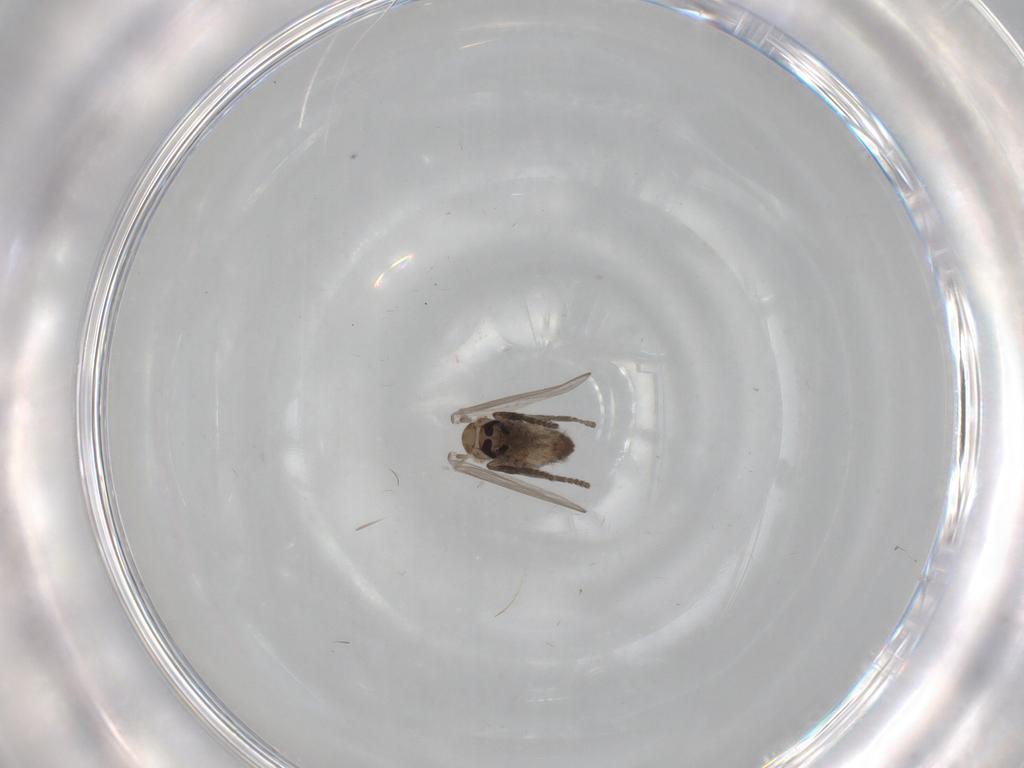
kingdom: Animalia
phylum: Arthropoda
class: Insecta
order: Diptera
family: Psychodidae
